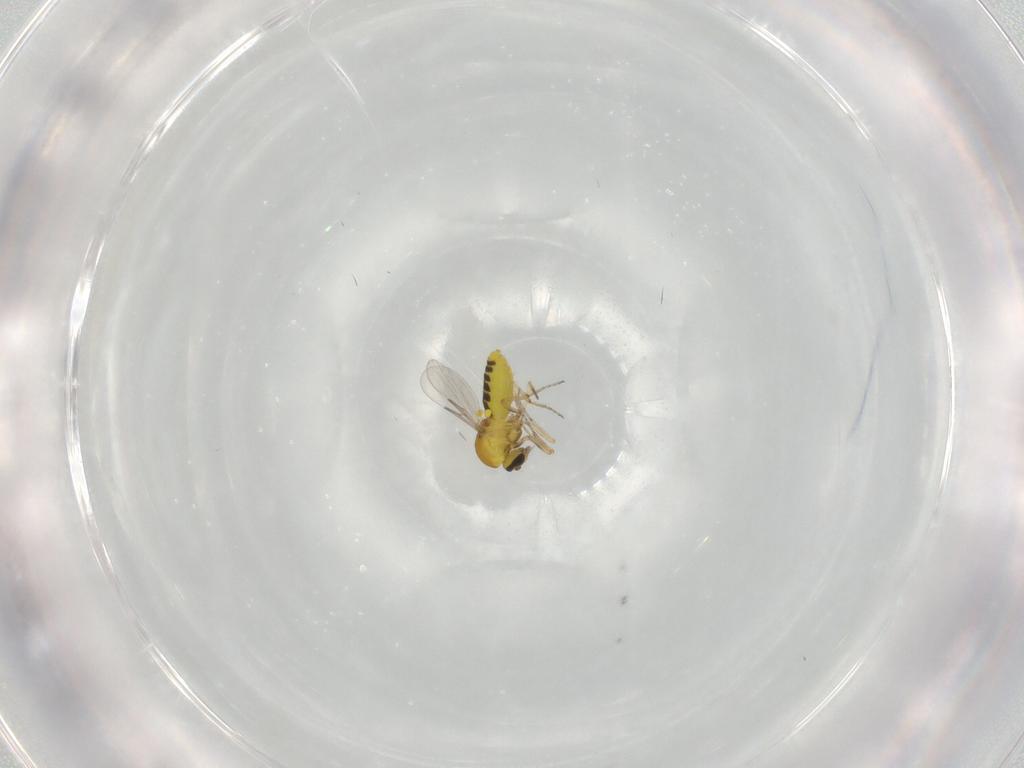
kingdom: Animalia
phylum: Arthropoda
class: Insecta
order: Diptera
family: Ceratopogonidae
